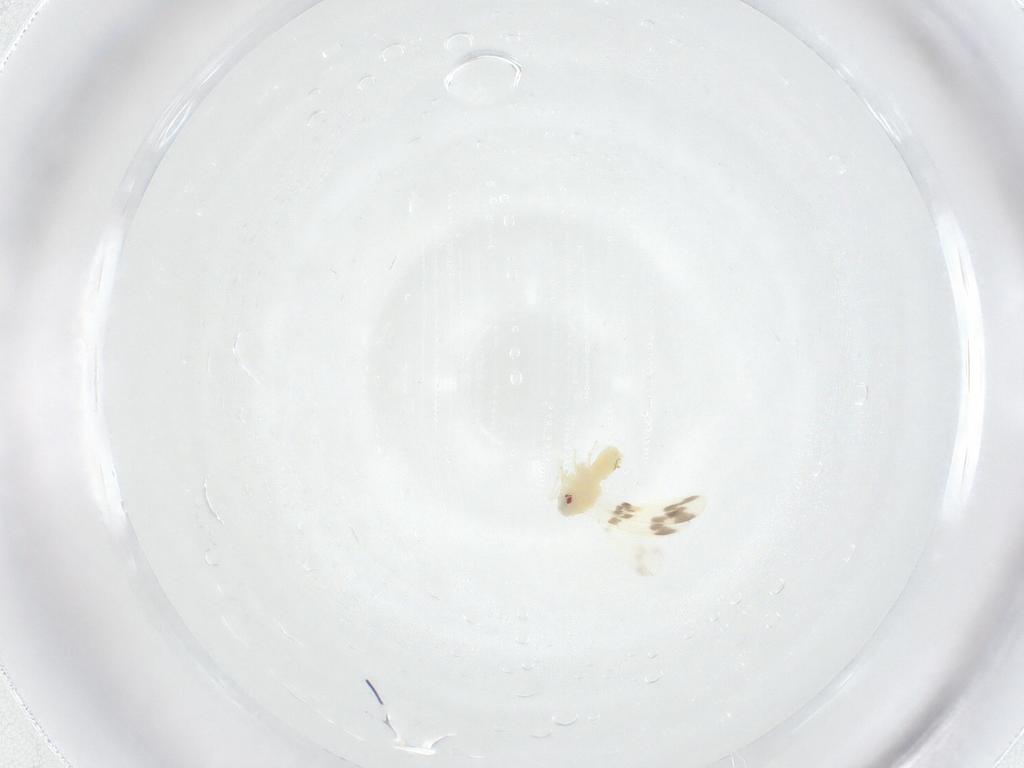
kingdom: Animalia
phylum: Arthropoda
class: Insecta
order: Hemiptera
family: Aleyrodidae
